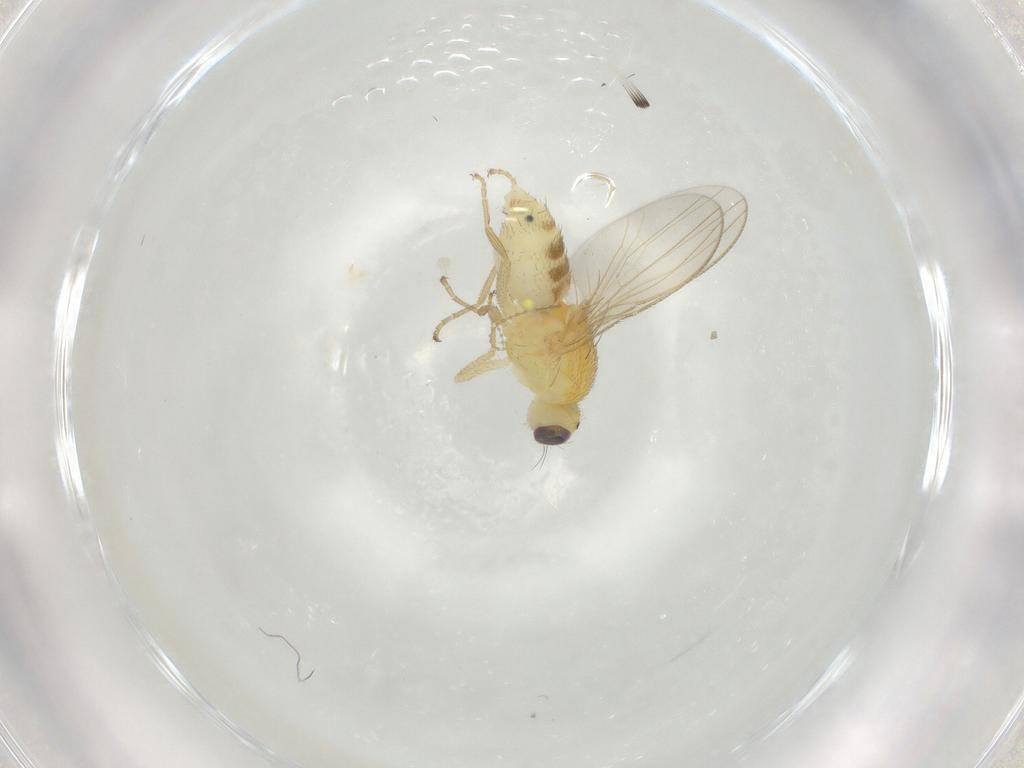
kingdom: Animalia
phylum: Arthropoda
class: Insecta
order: Diptera
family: Chyromyidae
